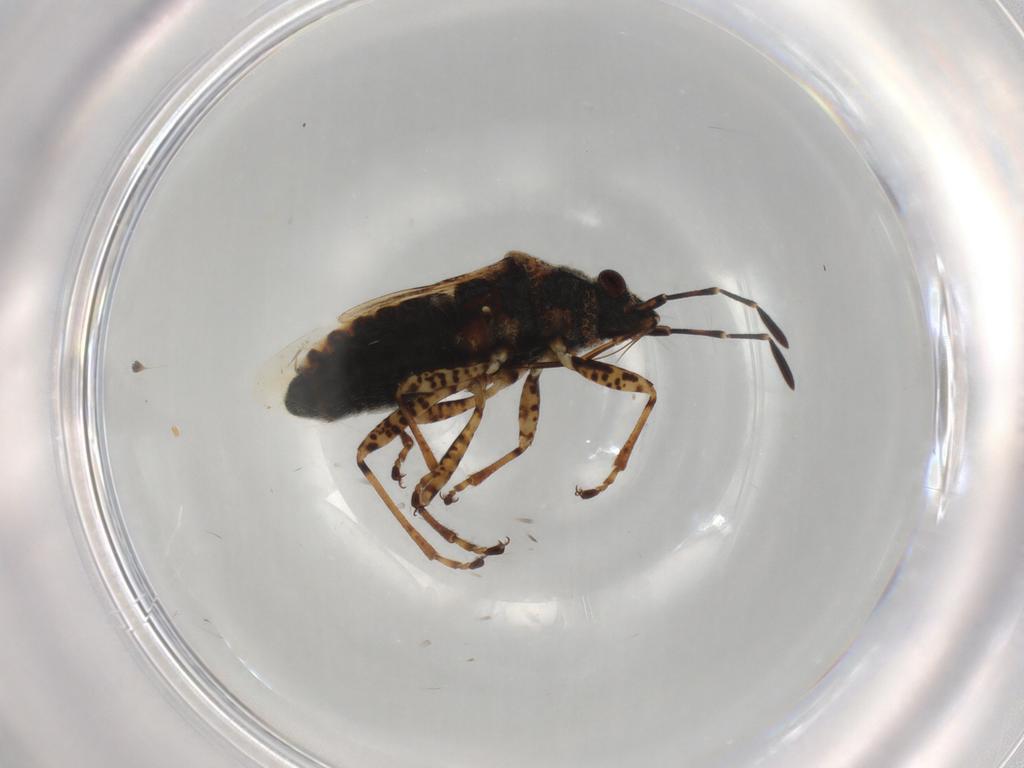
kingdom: Animalia
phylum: Arthropoda
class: Insecta
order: Hemiptera
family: Lygaeidae
